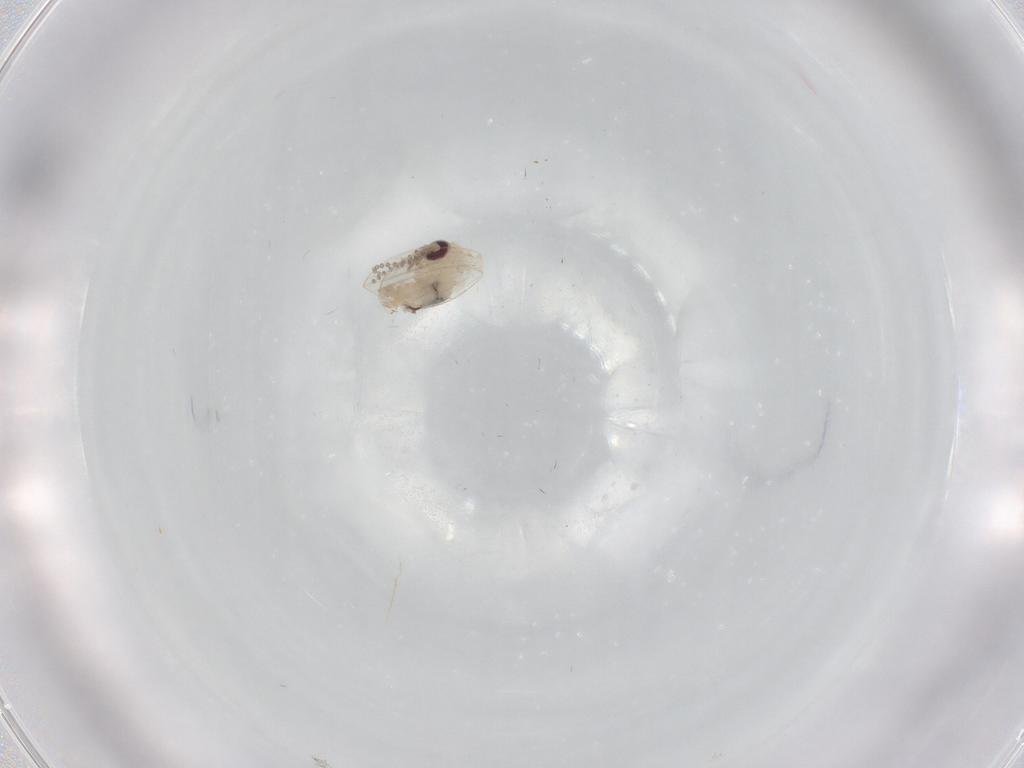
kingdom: Animalia
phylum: Arthropoda
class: Insecta
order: Diptera
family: Psychodidae
